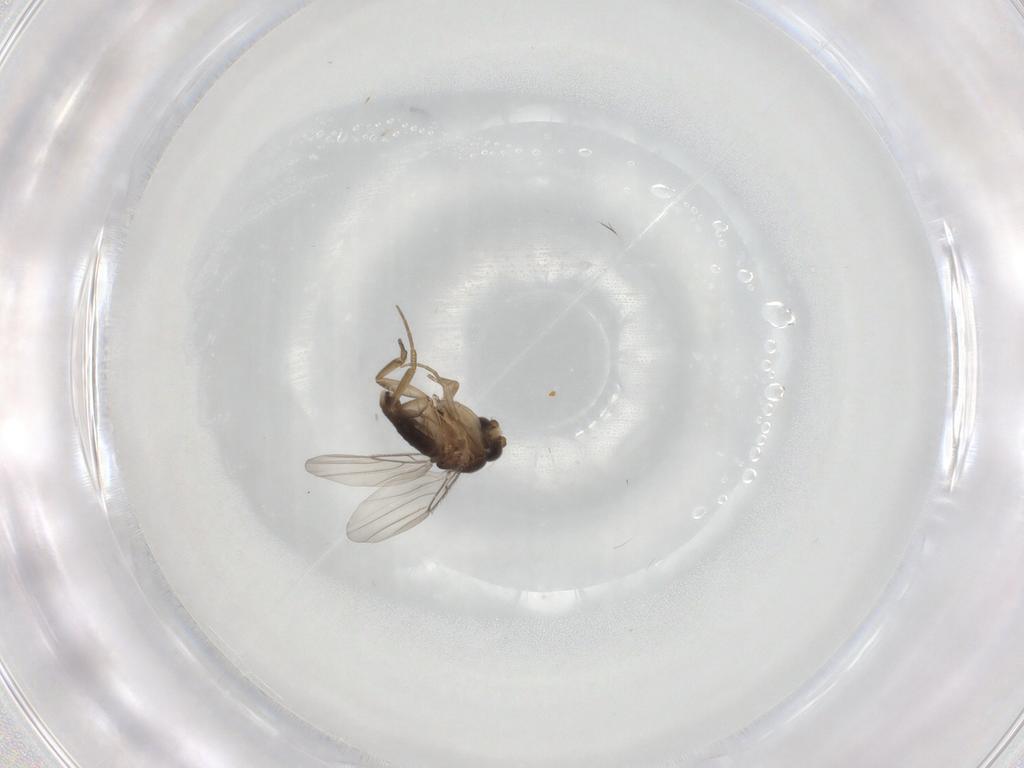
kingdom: Animalia
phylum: Arthropoda
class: Insecta
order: Diptera
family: Phoridae
